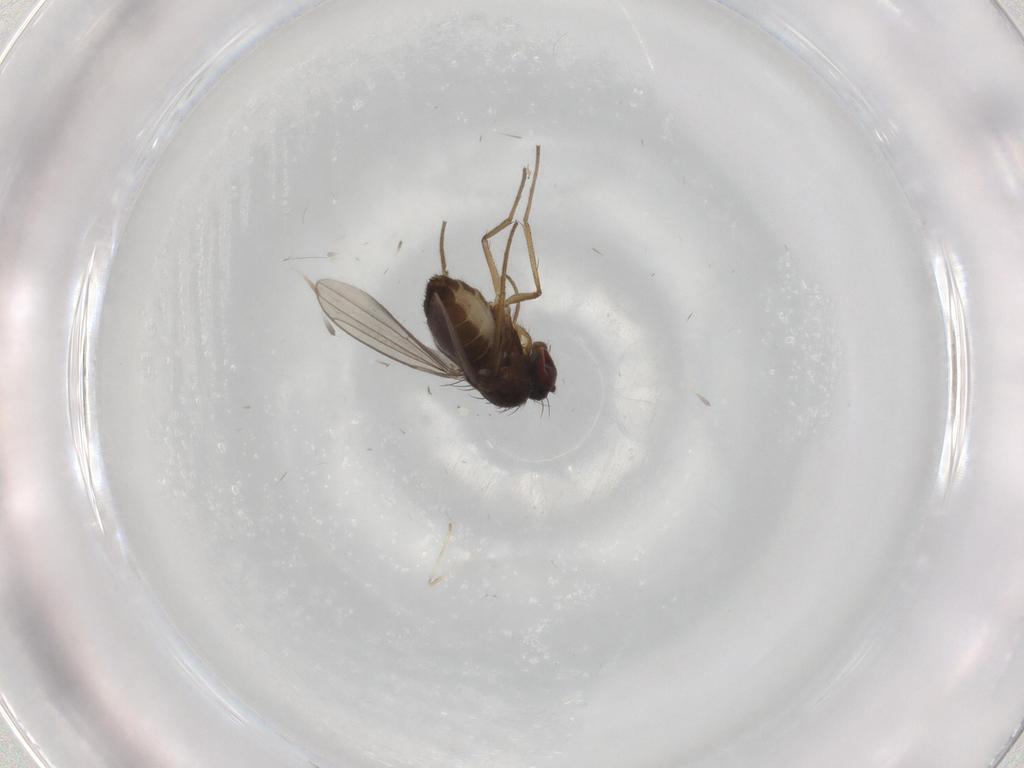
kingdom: Animalia
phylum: Arthropoda
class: Insecta
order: Diptera
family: Dolichopodidae
